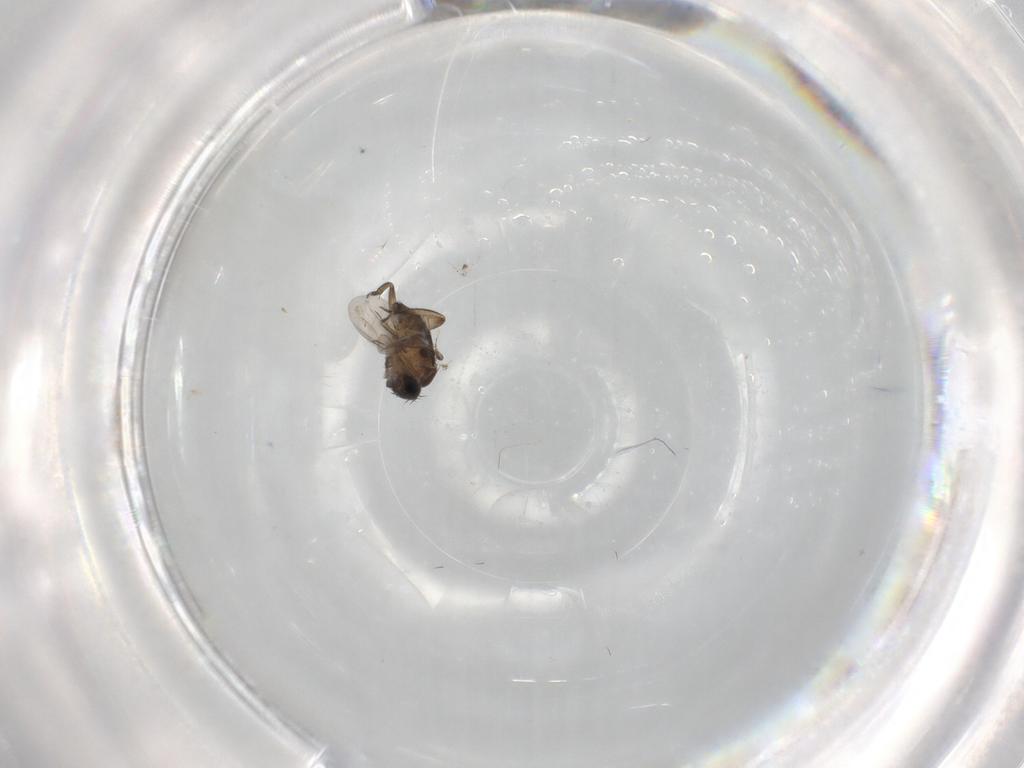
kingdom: Animalia
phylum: Arthropoda
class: Insecta
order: Diptera
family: Phoridae
